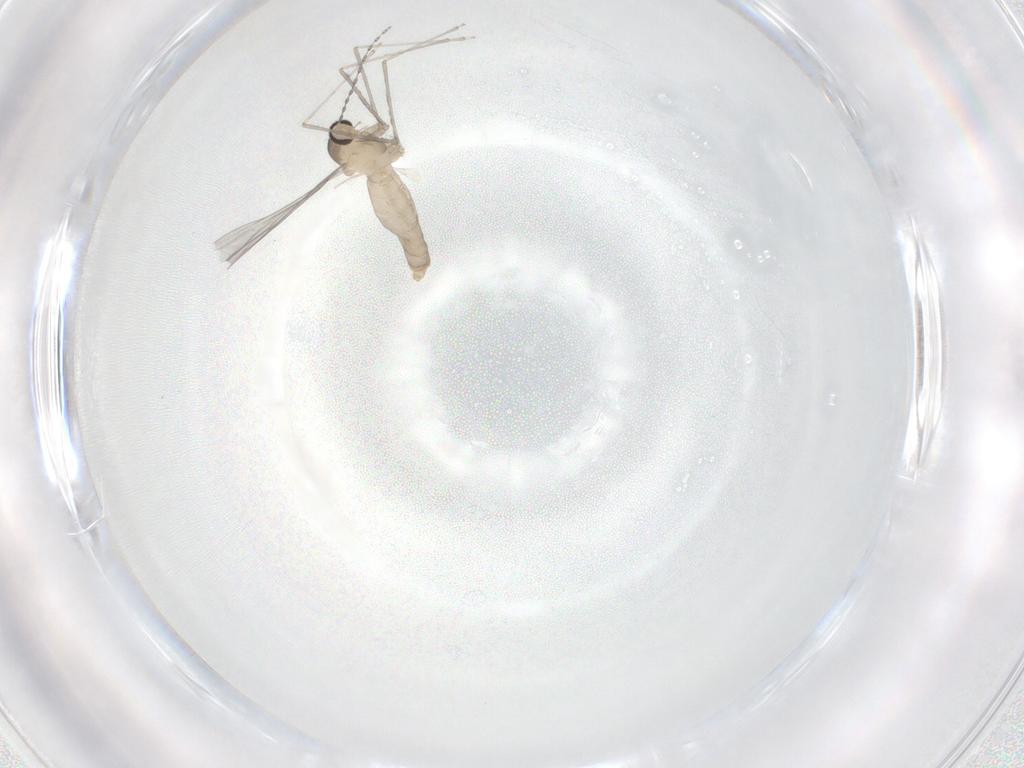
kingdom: Animalia
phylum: Arthropoda
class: Insecta
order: Diptera
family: Cecidomyiidae
